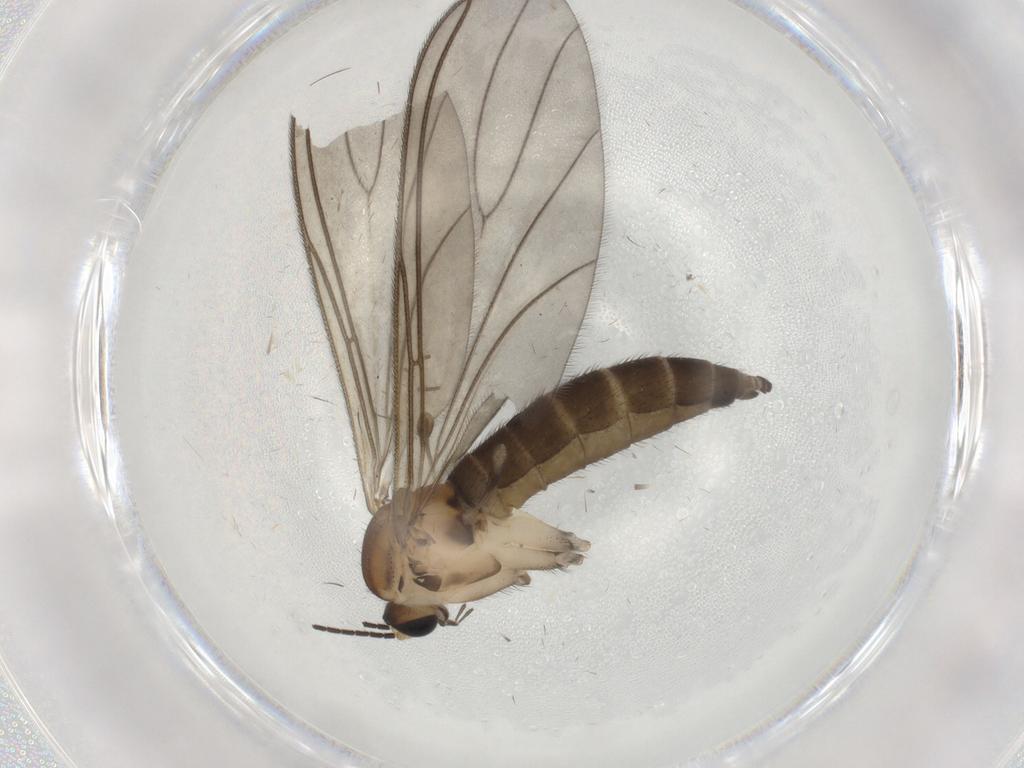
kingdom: Animalia
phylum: Arthropoda
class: Insecta
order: Diptera
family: Sciaridae
